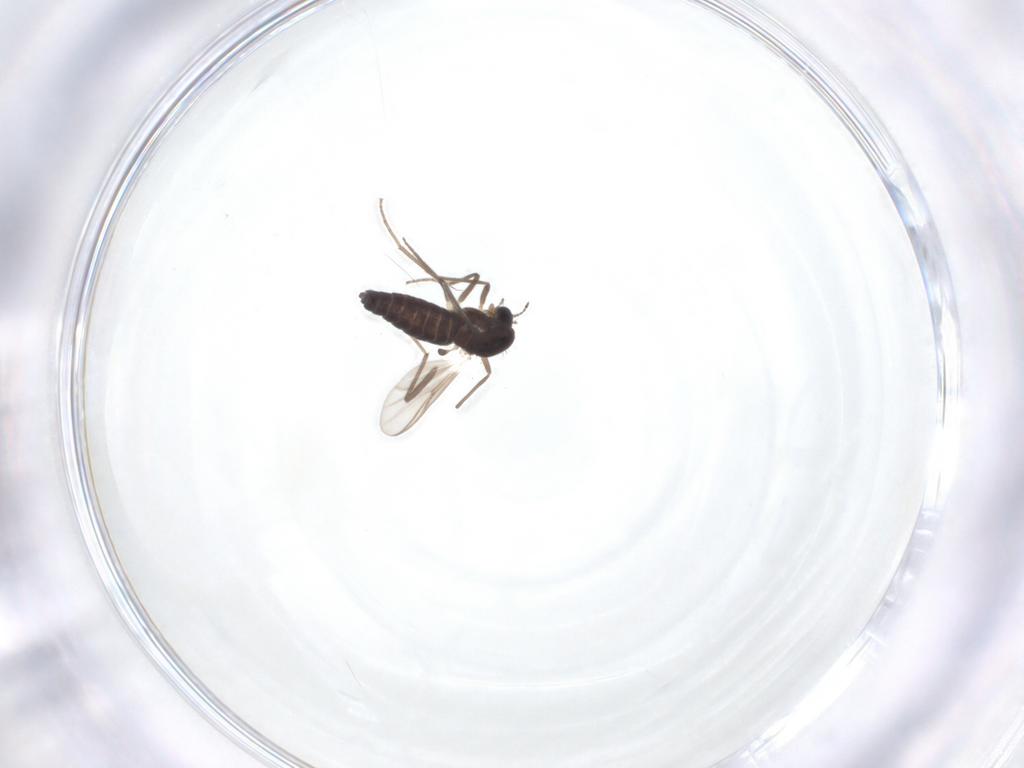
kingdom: Animalia
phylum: Arthropoda
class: Insecta
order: Diptera
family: Chironomidae
